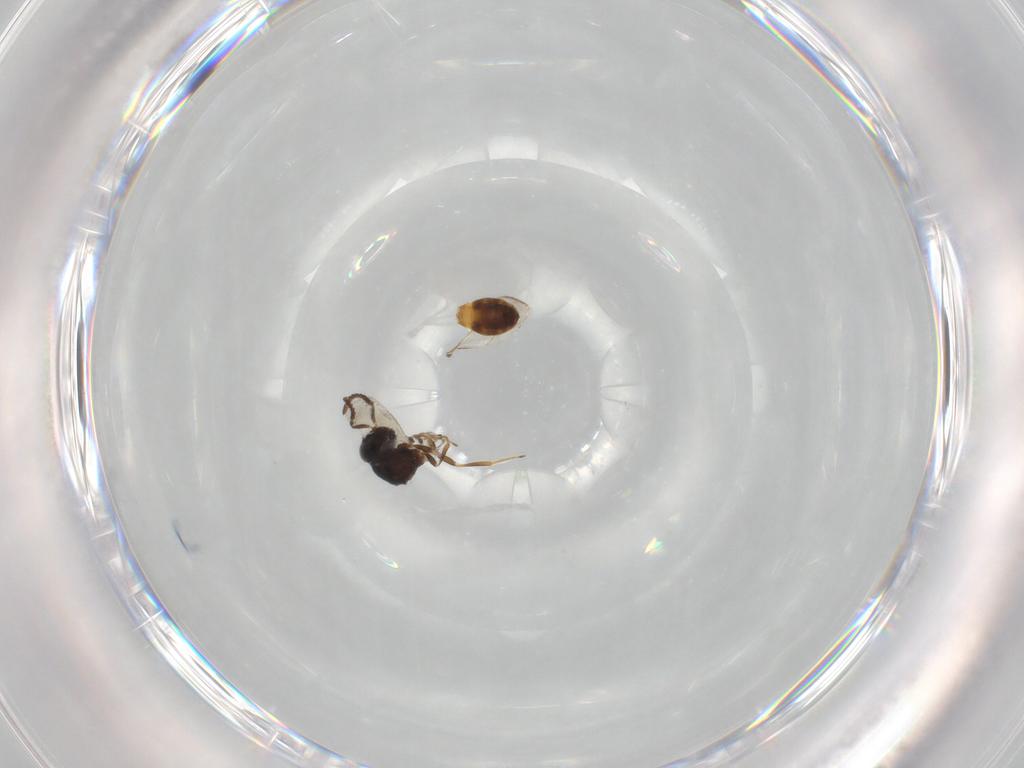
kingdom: Animalia
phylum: Arthropoda
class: Insecta
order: Hymenoptera
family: Scelionidae
